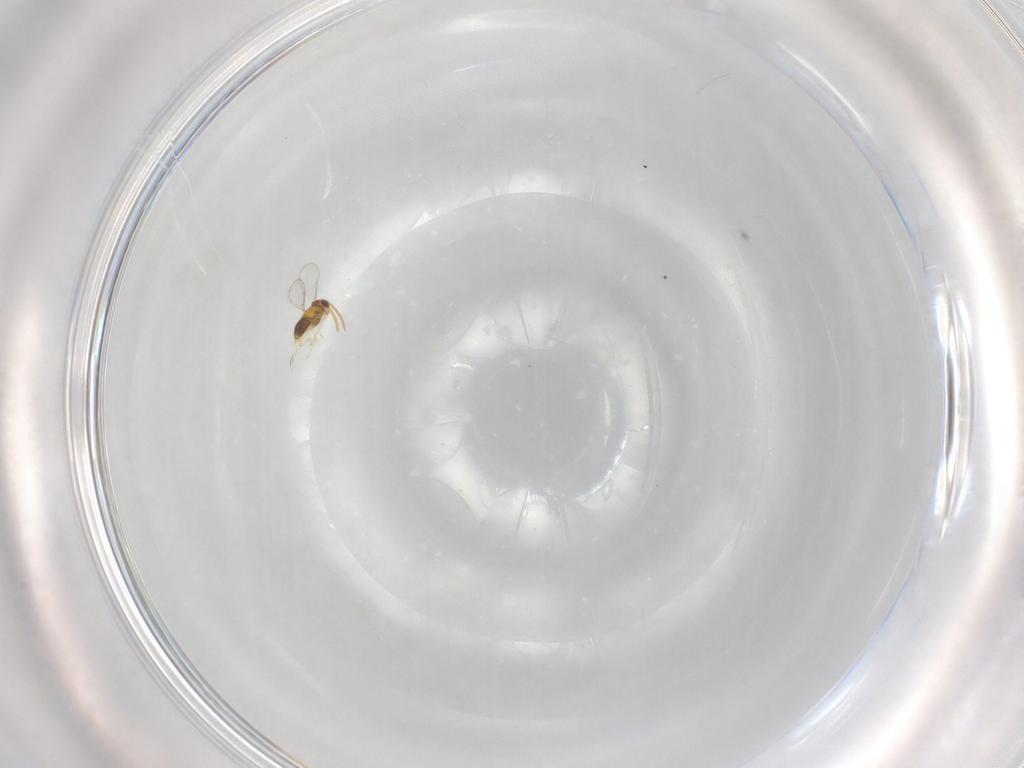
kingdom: Animalia
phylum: Arthropoda
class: Insecta
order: Hymenoptera
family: Aphelinidae
